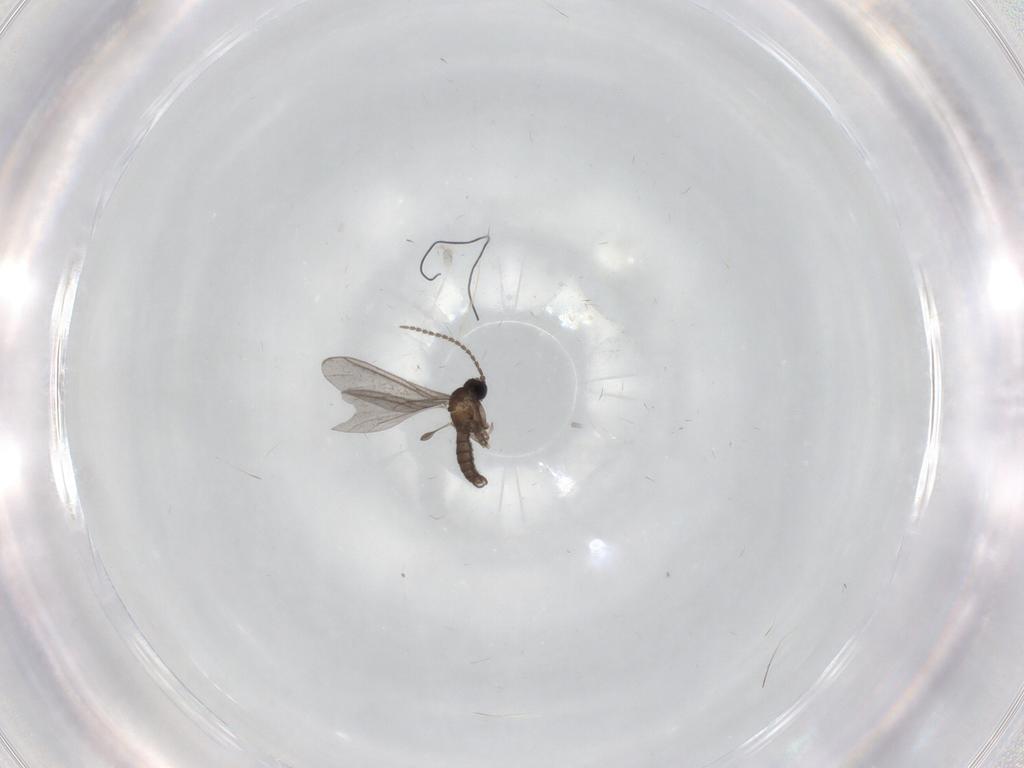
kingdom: Animalia
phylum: Arthropoda
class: Insecta
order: Diptera
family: Sciaridae
